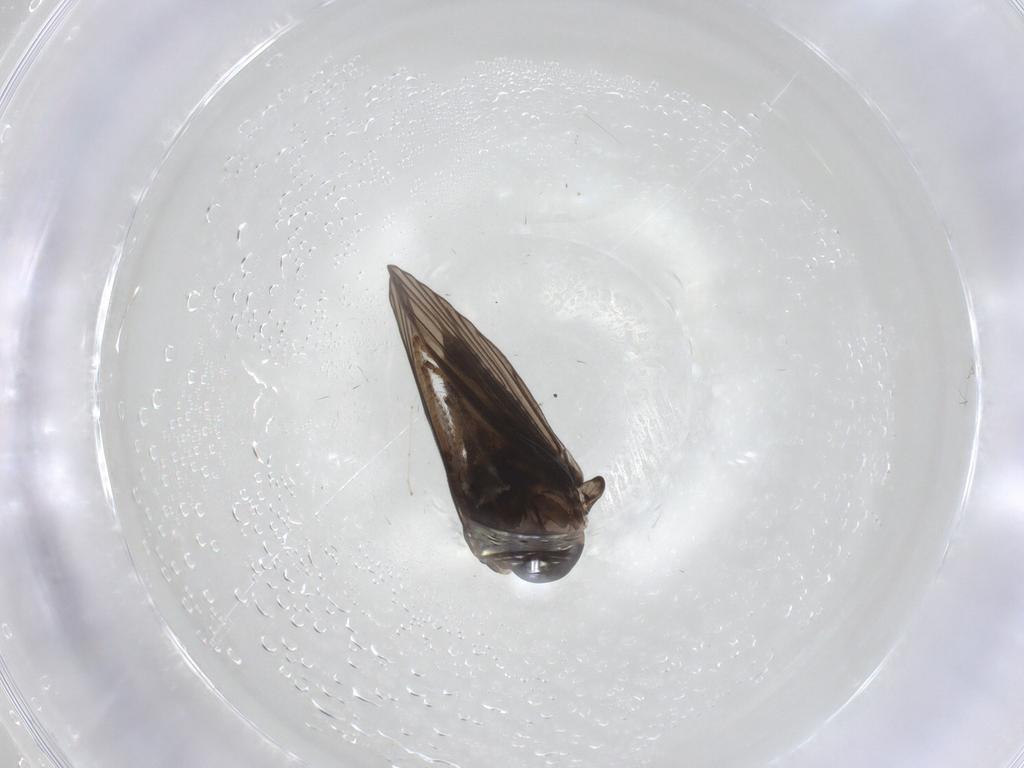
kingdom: Animalia
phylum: Arthropoda
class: Insecta
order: Diptera
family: Psychodidae
